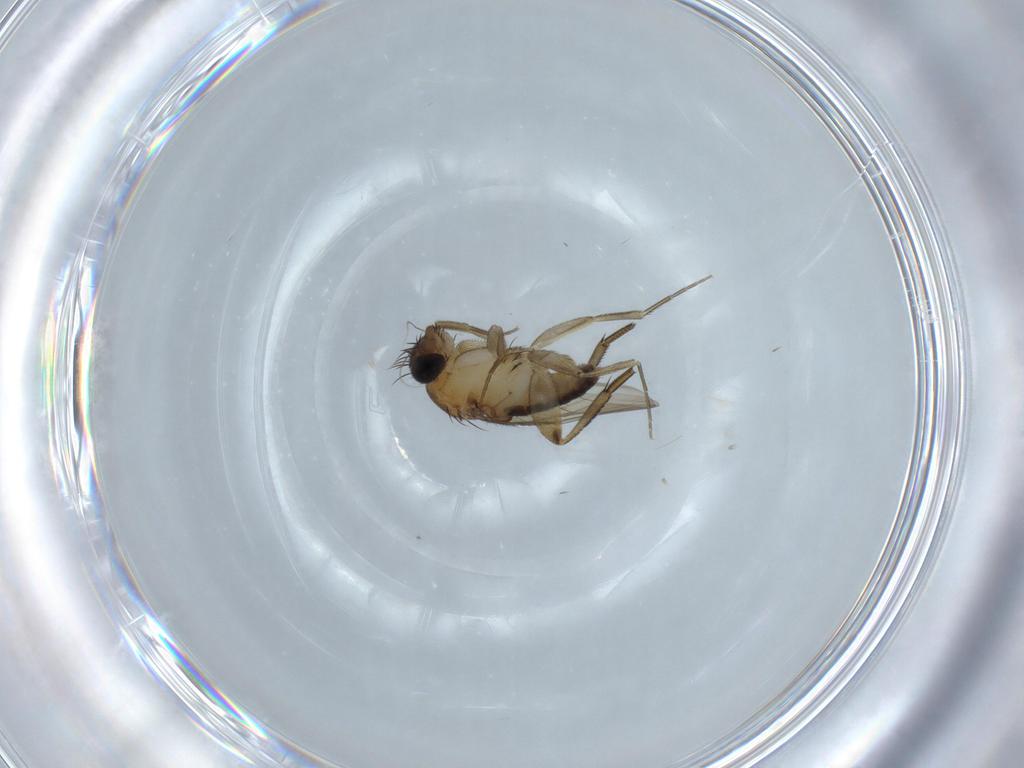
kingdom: Animalia
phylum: Arthropoda
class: Insecta
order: Diptera
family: Phoridae
